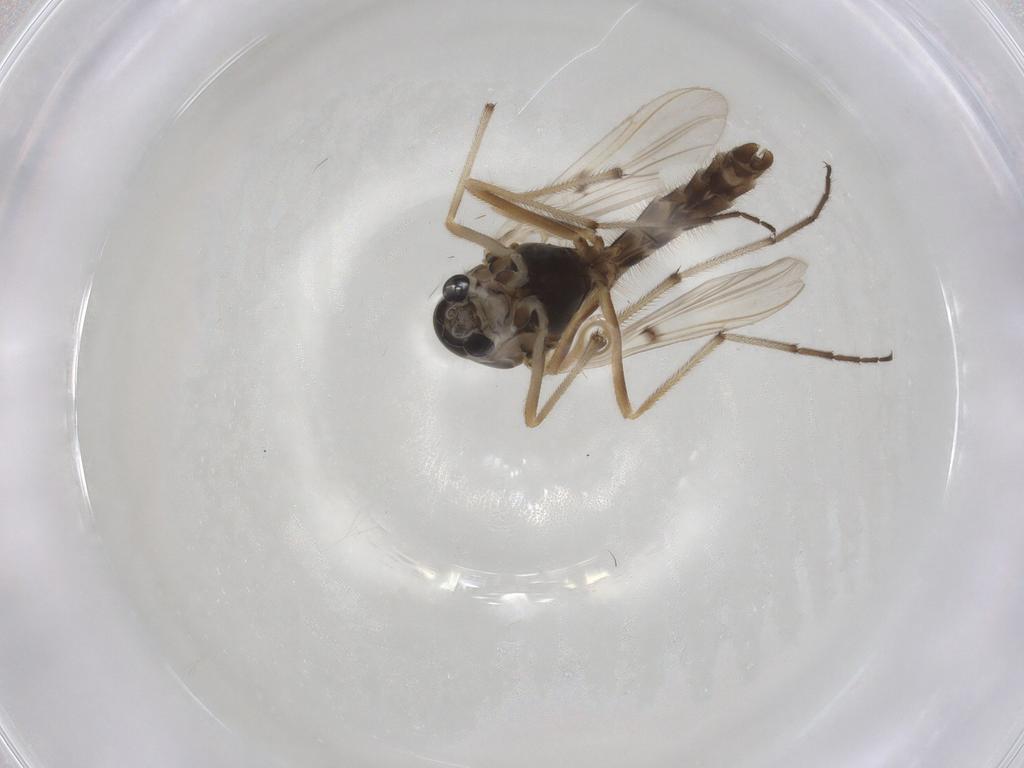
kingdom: Animalia
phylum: Arthropoda
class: Insecta
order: Diptera
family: Chironomidae
